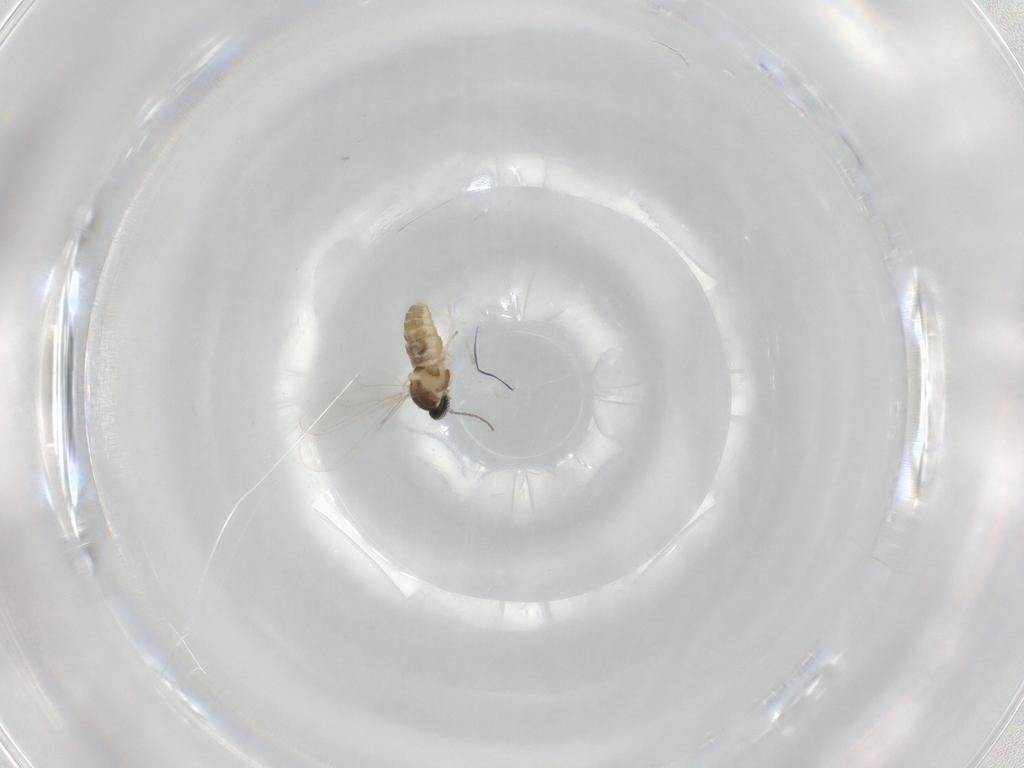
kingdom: Animalia
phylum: Arthropoda
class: Insecta
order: Diptera
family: Cecidomyiidae
